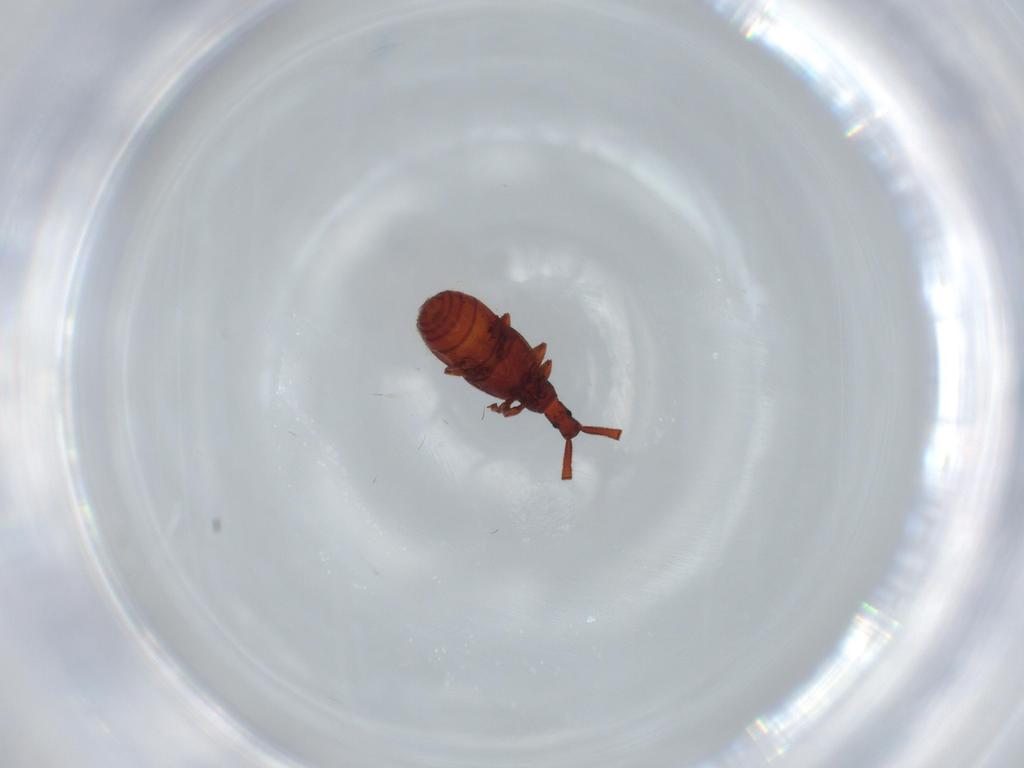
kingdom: Animalia
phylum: Arthropoda
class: Insecta
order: Coleoptera
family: Staphylinidae
